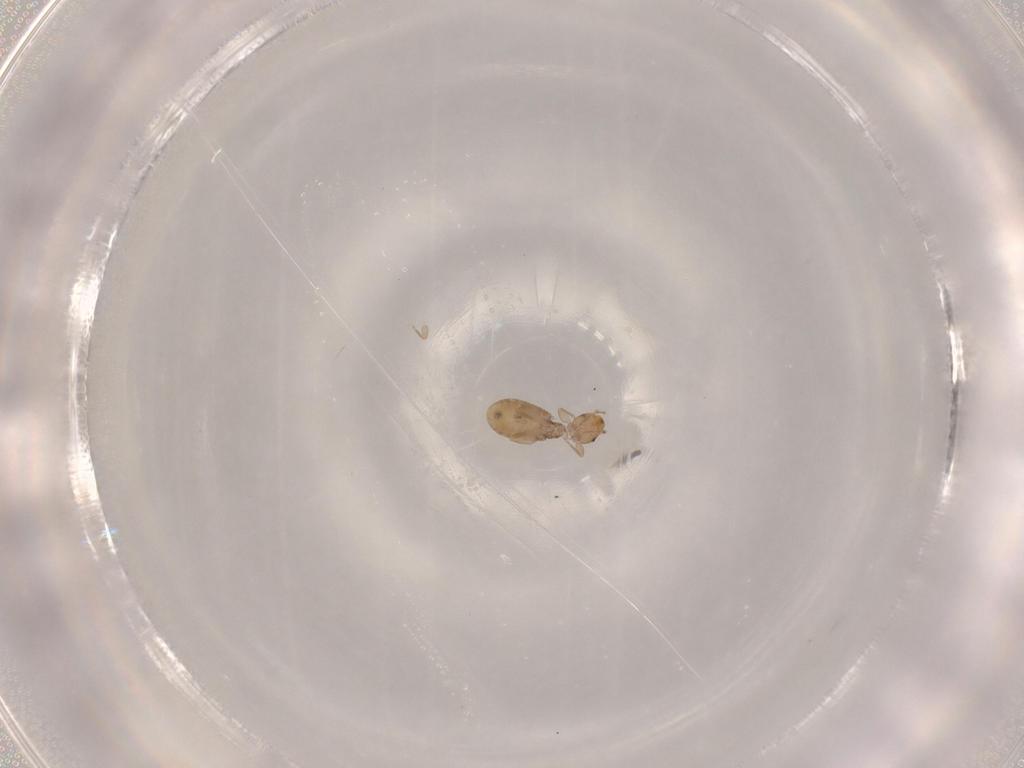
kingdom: Animalia
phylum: Arthropoda
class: Insecta
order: Psocodea
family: Liposcelididae
